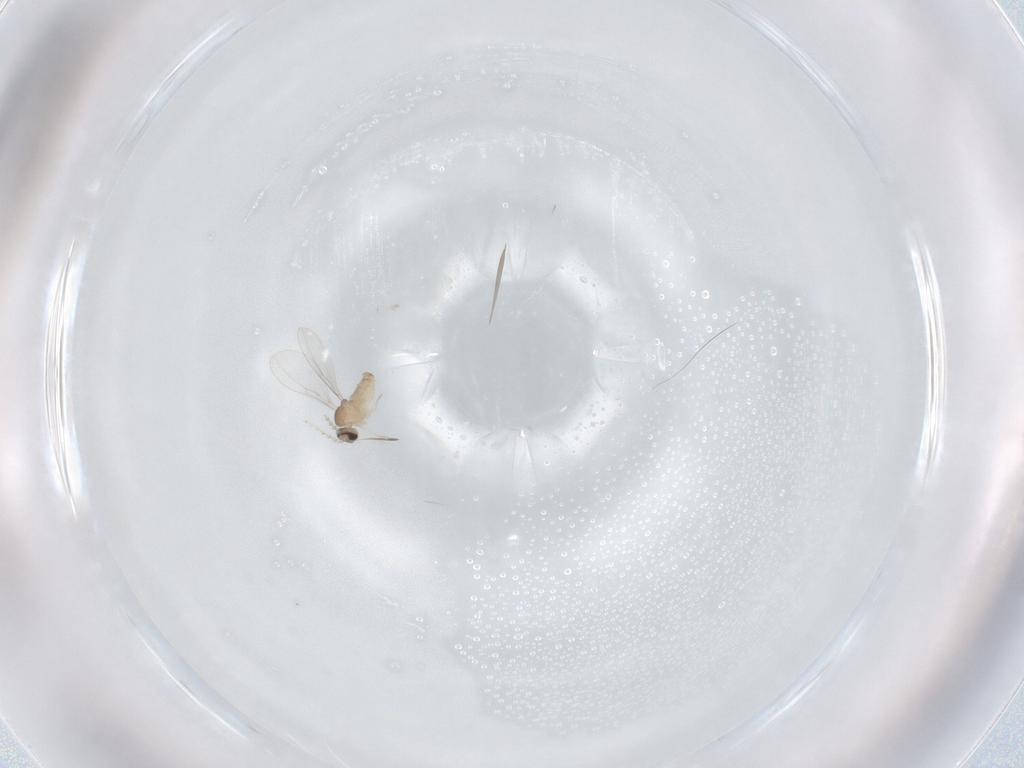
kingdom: Animalia
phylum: Arthropoda
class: Insecta
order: Diptera
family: Cecidomyiidae
